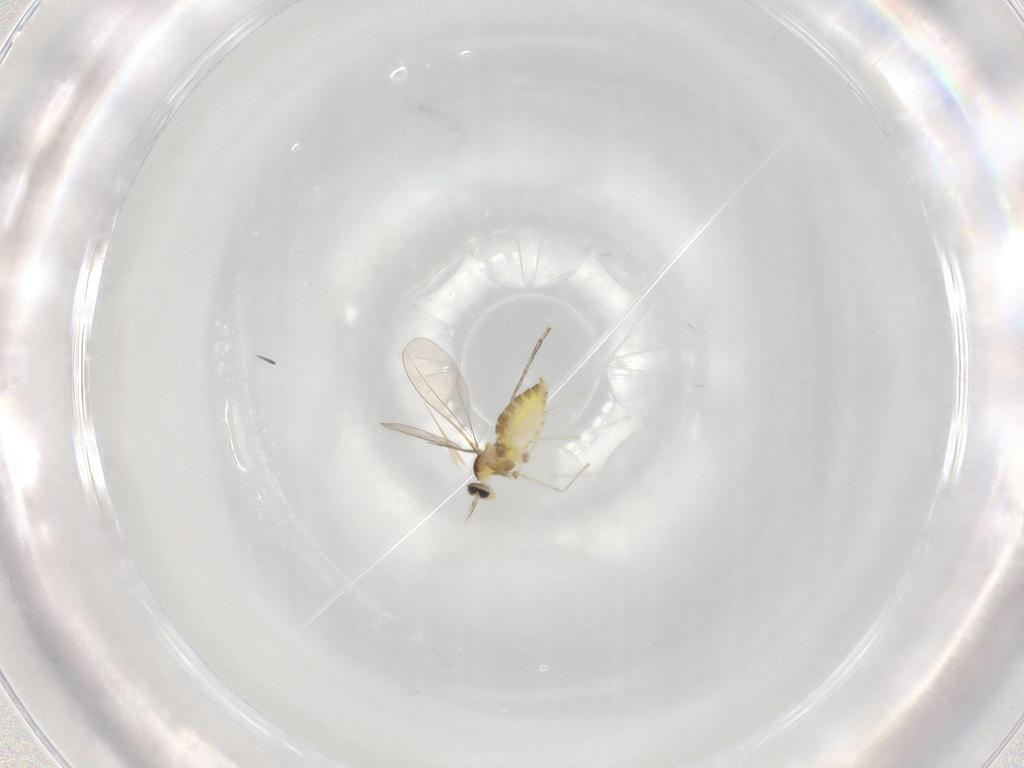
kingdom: Animalia
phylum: Arthropoda
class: Insecta
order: Diptera
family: Cecidomyiidae
